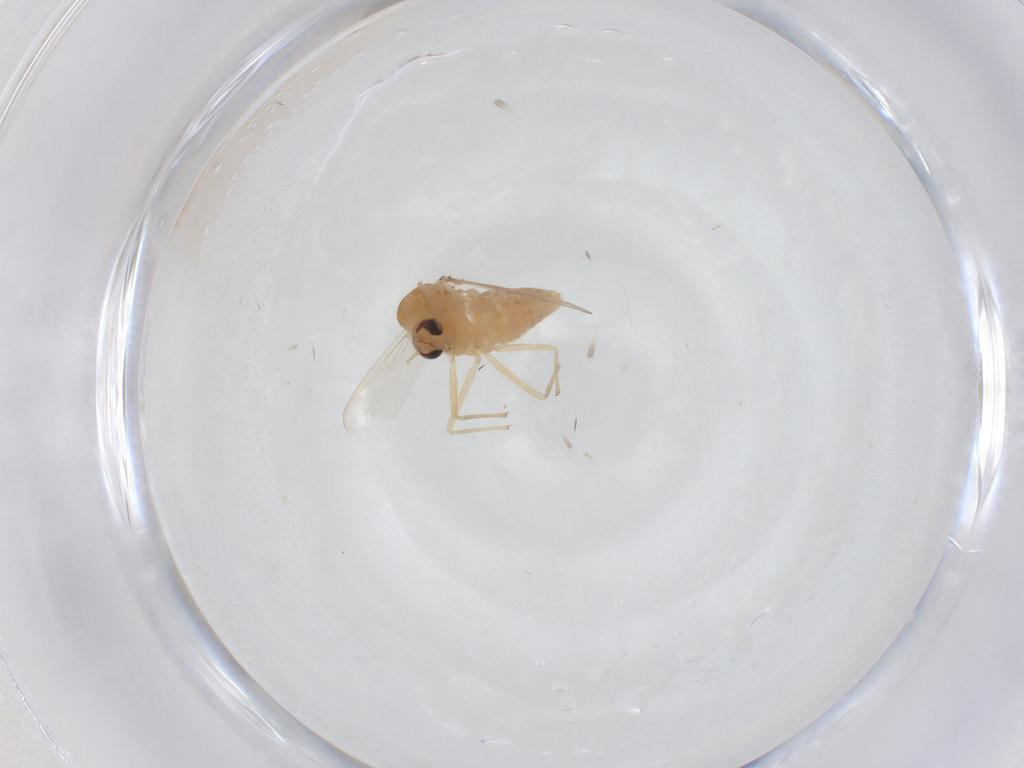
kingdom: Animalia
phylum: Arthropoda
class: Insecta
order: Diptera
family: Chironomidae
